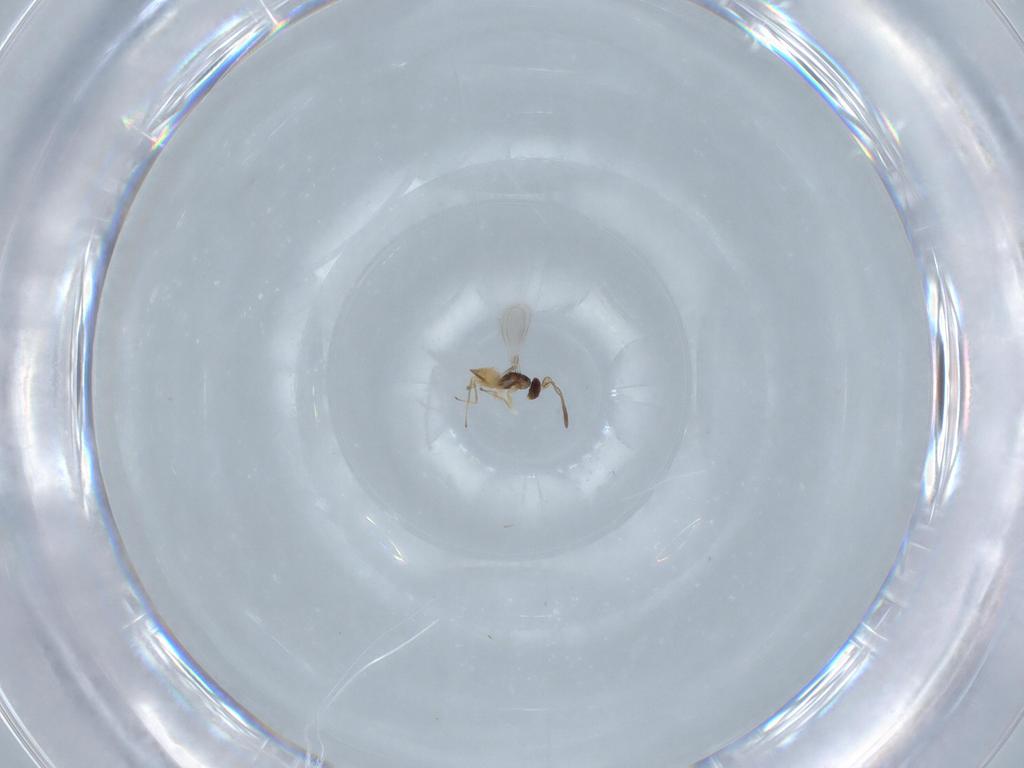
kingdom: Animalia
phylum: Arthropoda
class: Insecta
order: Hymenoptera
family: Mymaridae
